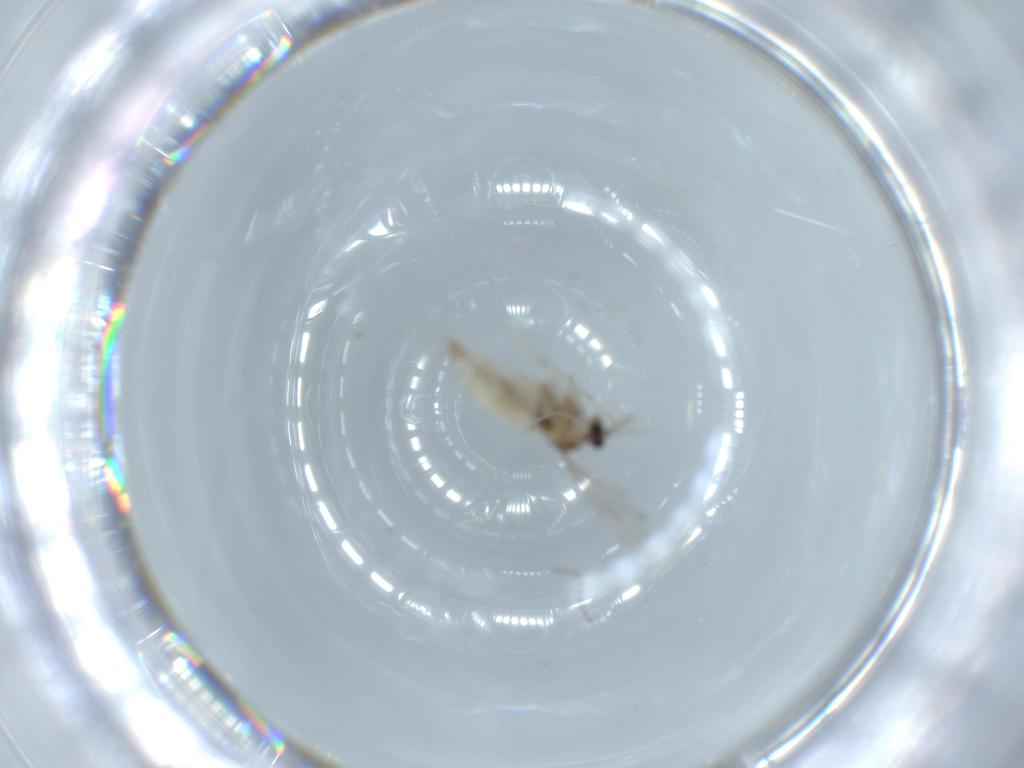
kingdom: Animalia
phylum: Arthropoda
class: Insecta
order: Diptera
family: Cecidomyiidae
